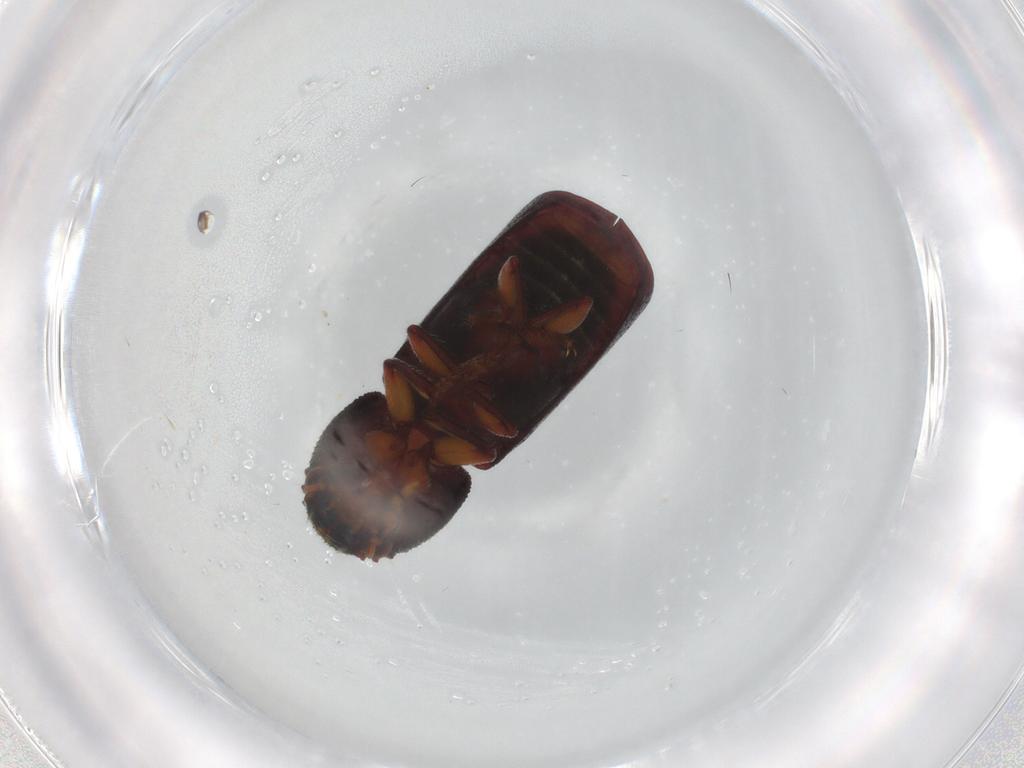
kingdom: Animalia
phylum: Arthropoda
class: Insecta
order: Coleoptera
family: Bostrichidae
